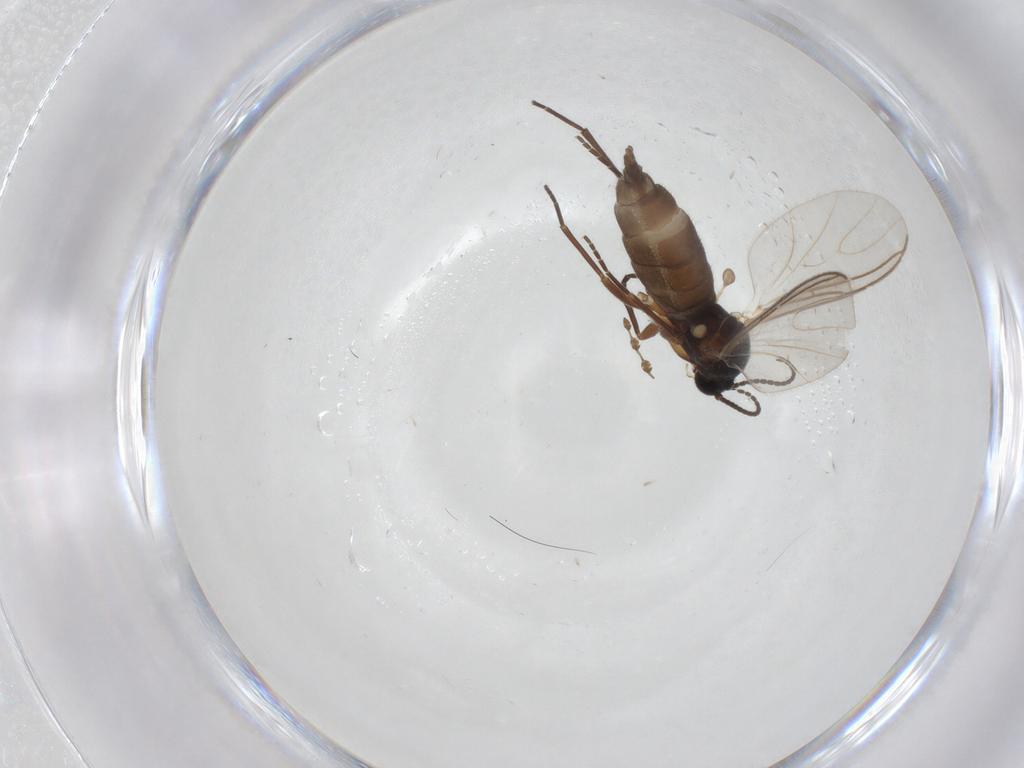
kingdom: Animalia
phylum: Arthropoda
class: Insecta
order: Diptera
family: Sciaridae
